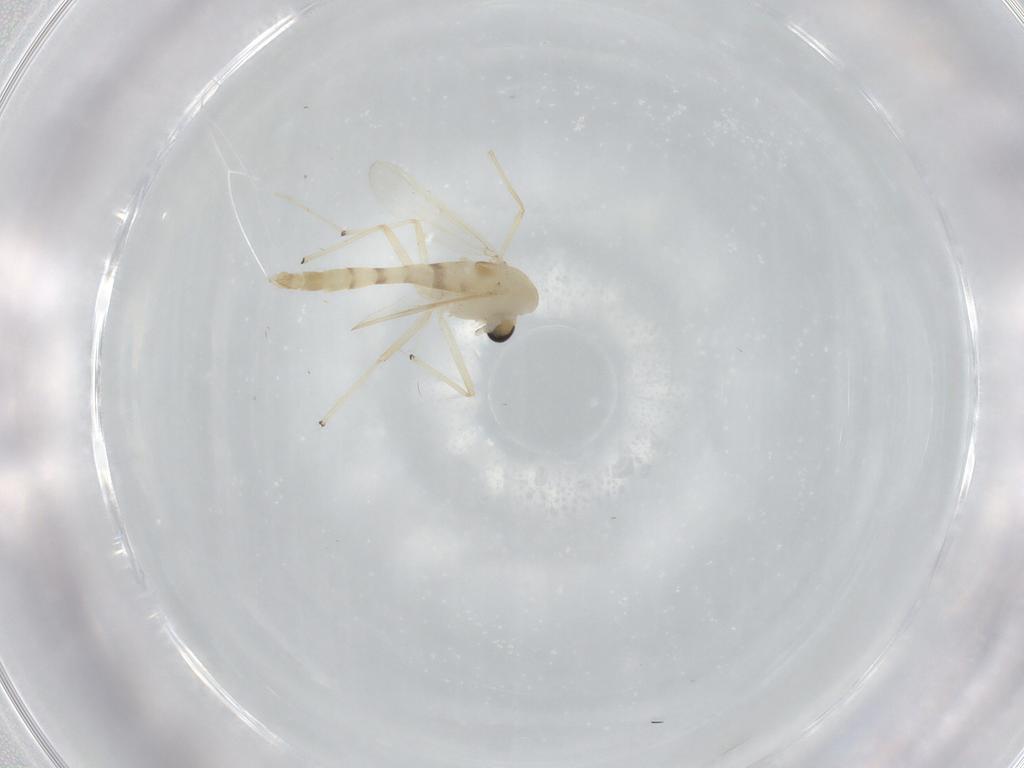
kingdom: Animalia
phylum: Arthropoda
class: Insecta
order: Diptera
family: Chironomidae
